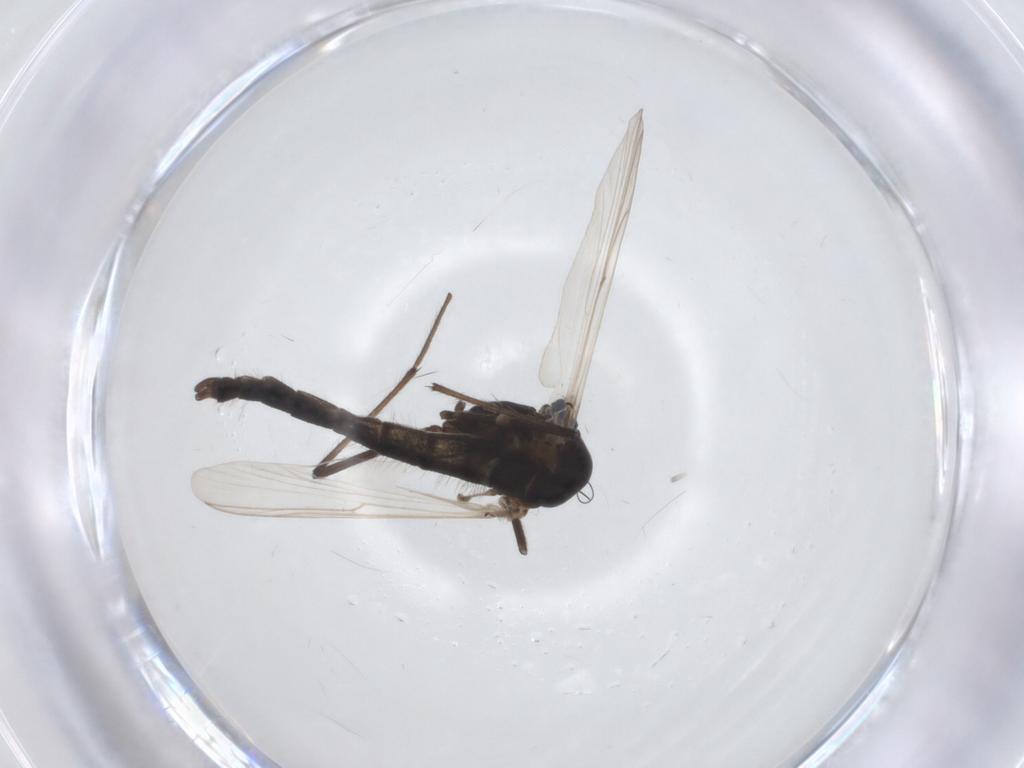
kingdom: Animalia
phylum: Arthropoda
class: Insecta
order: Diptera
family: Chironomidae
